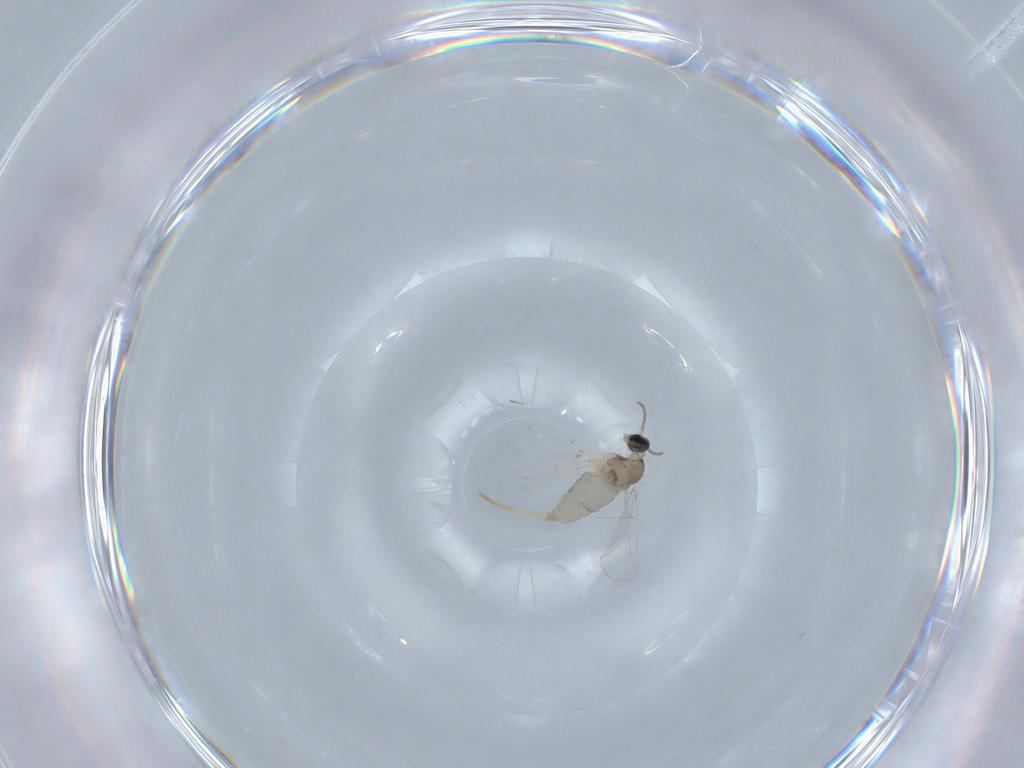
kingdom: Animalia
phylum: Arthropoda
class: Insecta
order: Diptera
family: Cecidomyiidae
